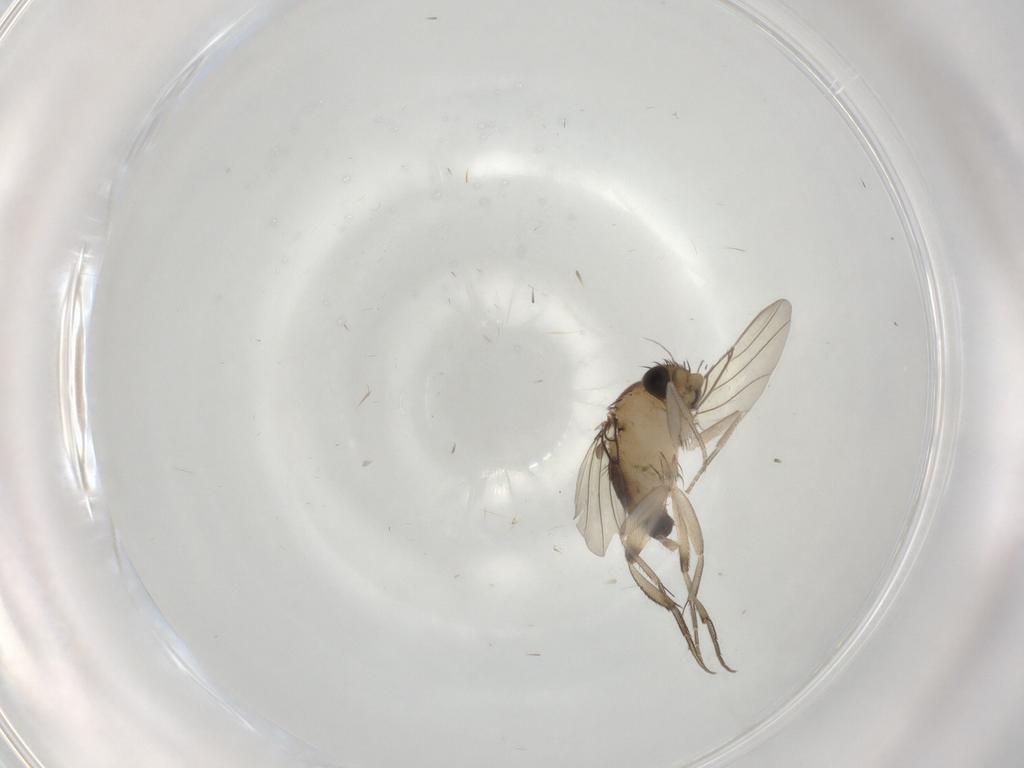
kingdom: Animalia
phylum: Arthropoda
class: Insecta
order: Diptera
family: Phoridae
